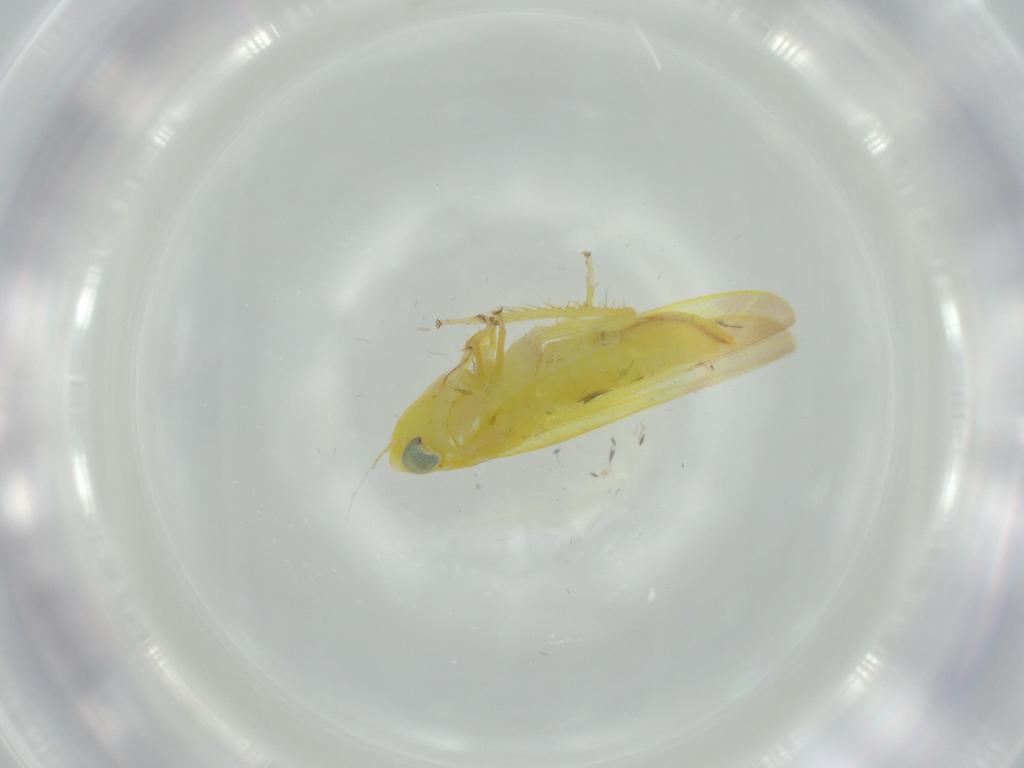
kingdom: Animalia
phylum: Arthropoda
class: Insecta
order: Hemiptera
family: Cicadellidae
